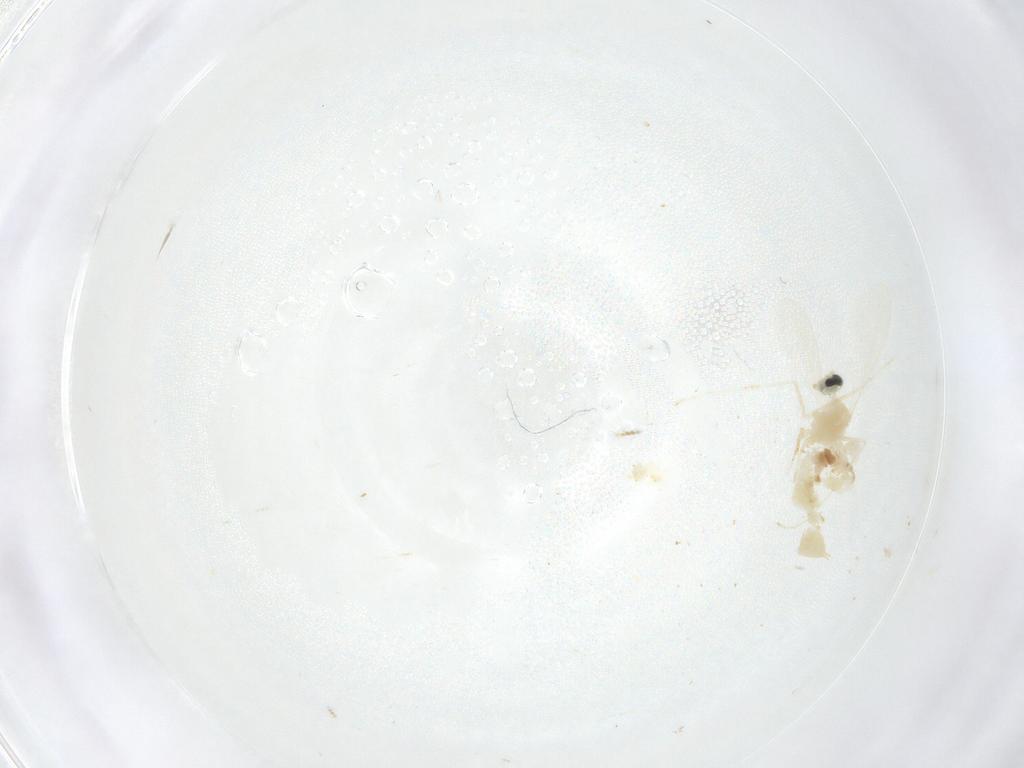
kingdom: Animalia
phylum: Arthropoda
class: Insecta
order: Diptera
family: Cecidomyiidae
